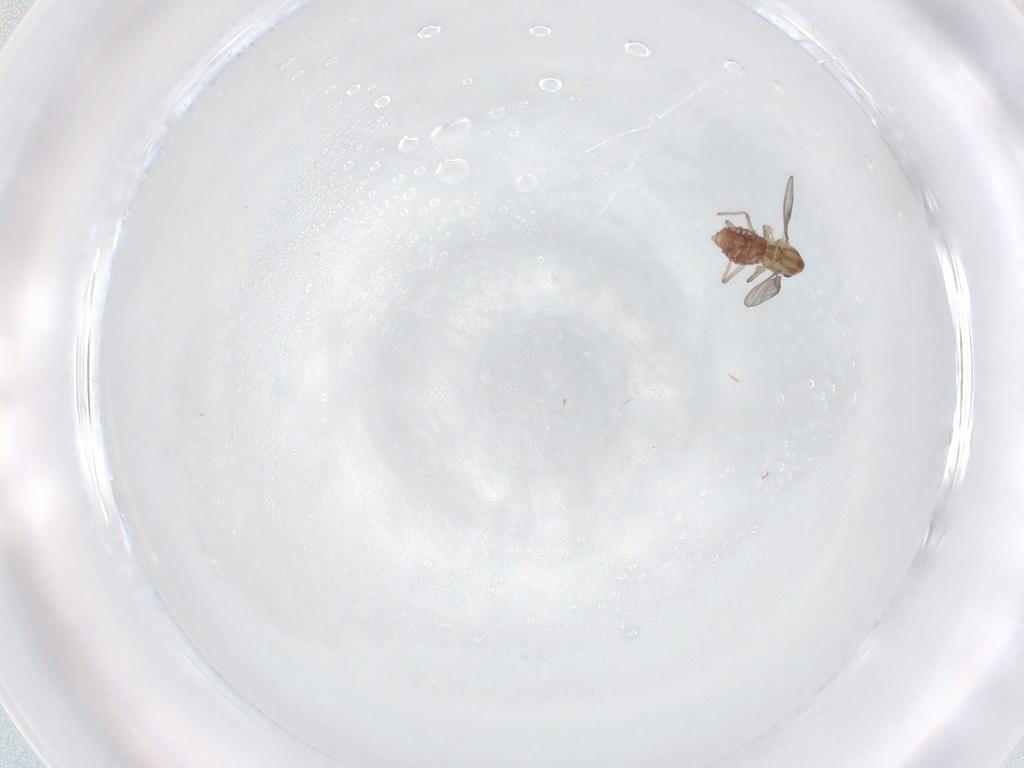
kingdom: Animalia
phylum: Arthropoda
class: Insecta
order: Diptera
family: Chironomidae
